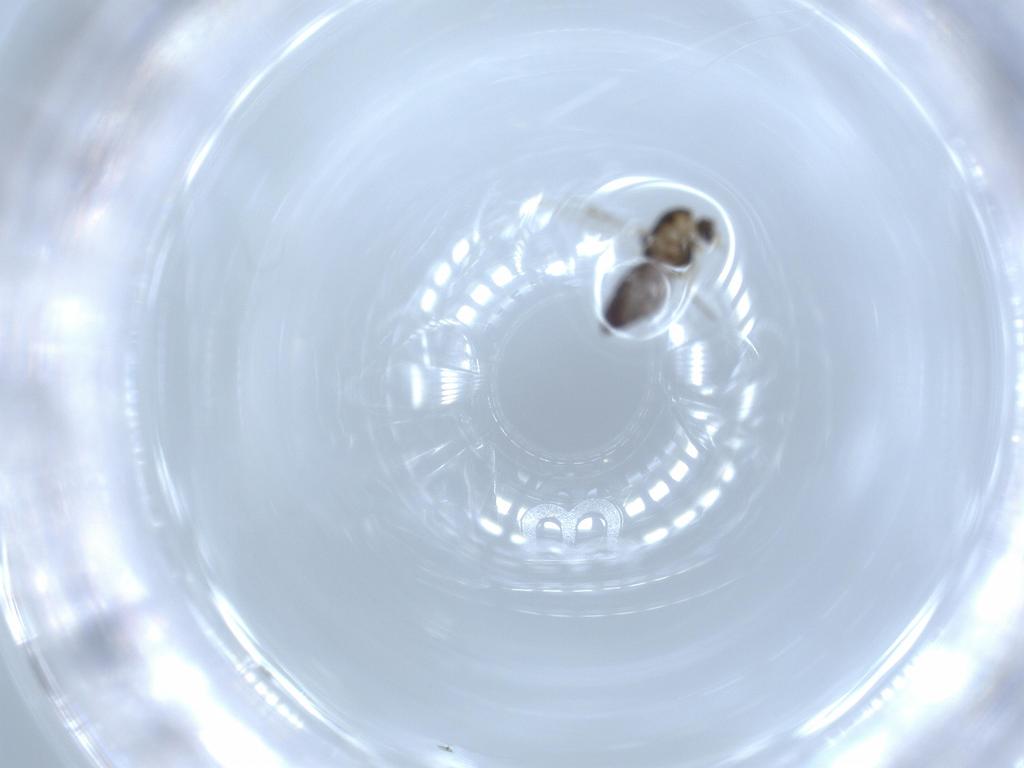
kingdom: Animalia
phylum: Arthropoda
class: Insecta
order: Diptera
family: Chironomidae
